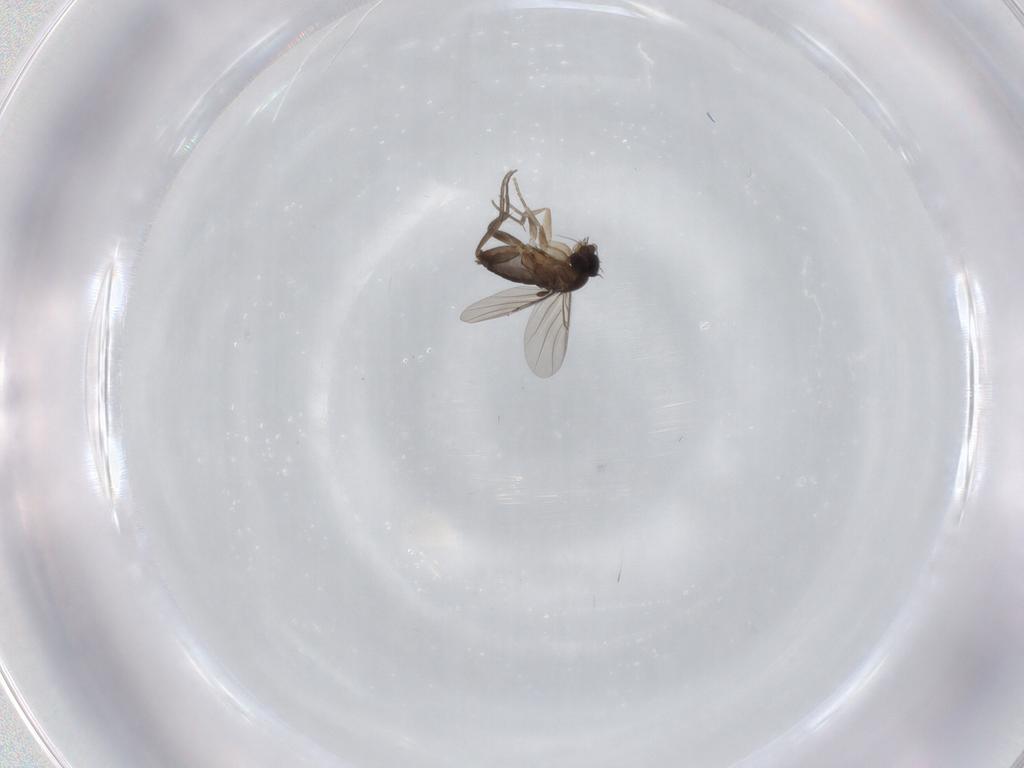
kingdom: Animalia
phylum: Arthropoda
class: Insecta
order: Diptera
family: Phoridae
